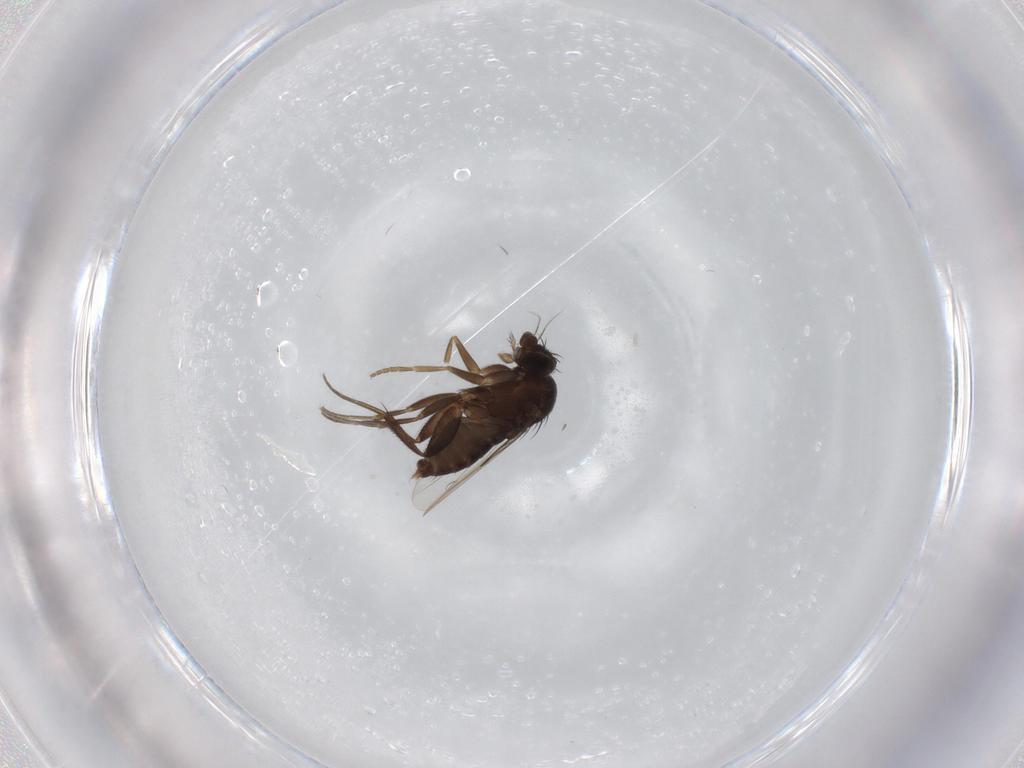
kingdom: Animalia
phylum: Arthropoda
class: Insecta
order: Diptera
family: Phoridae
